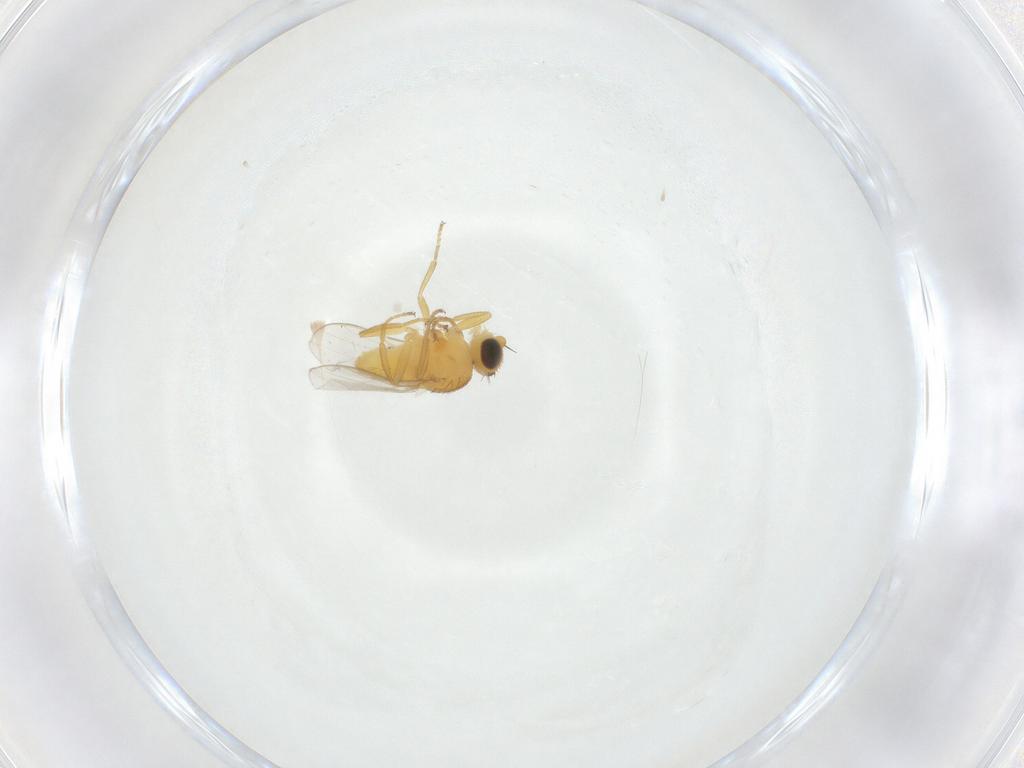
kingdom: Animalia
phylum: Arthropoda
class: Insecta
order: Diptera
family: Chloropidae
